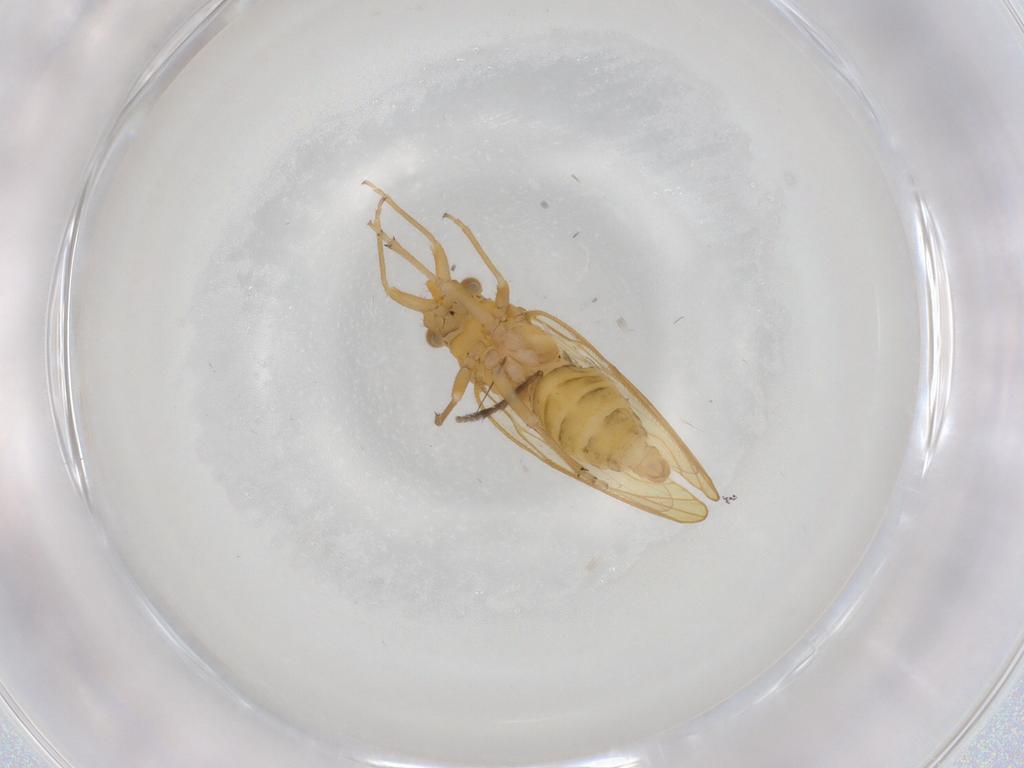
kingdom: Animalia
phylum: Arthropoda
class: Insecta
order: Hemiptera
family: Psyllidae
